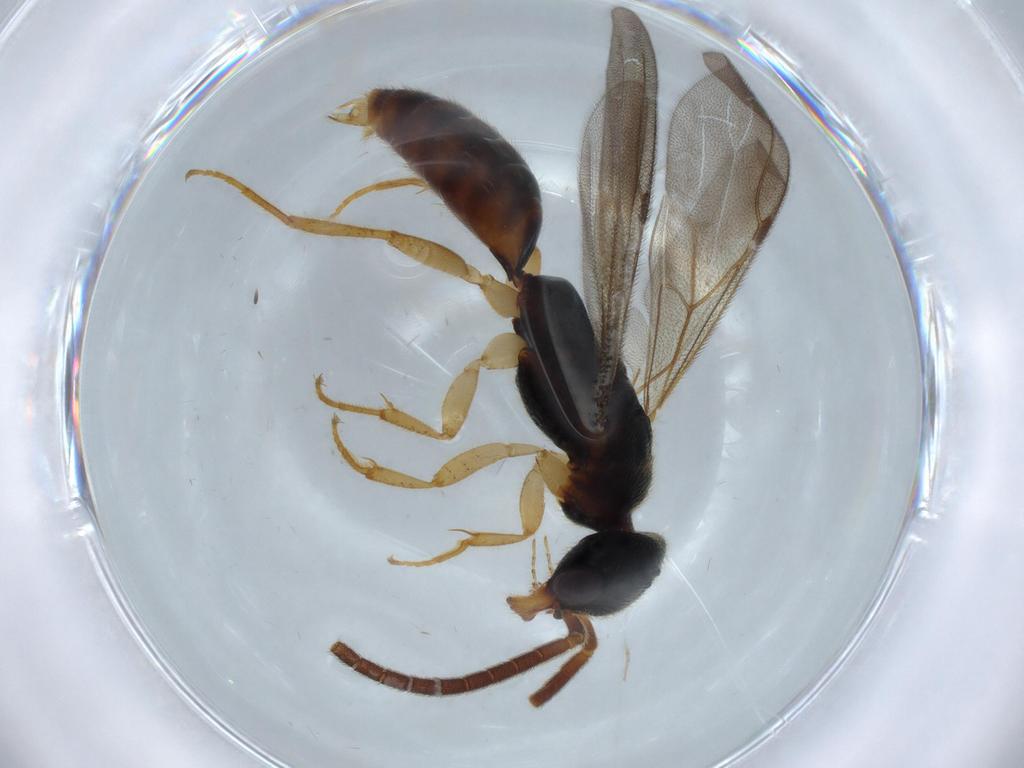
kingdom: Animalia
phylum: Arthropoda
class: Insecta
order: Hymenoptera
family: Bethylidae
